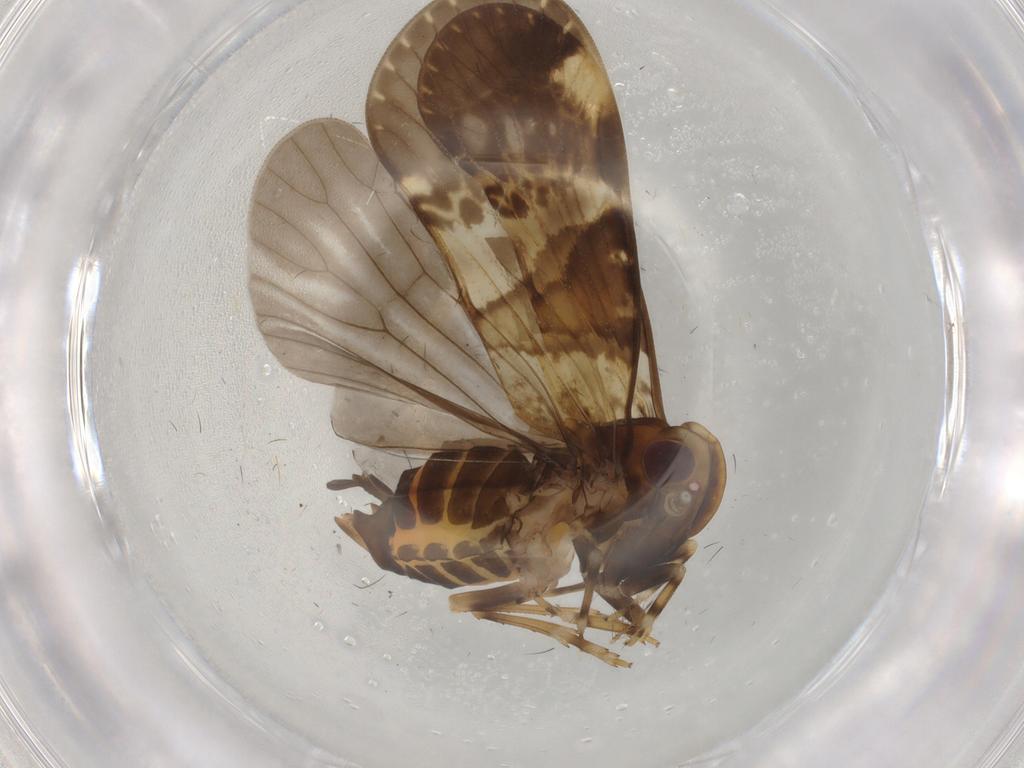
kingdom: Animalia
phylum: Arthropoda
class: Insecta
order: Hemiptera
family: Cixiidae
